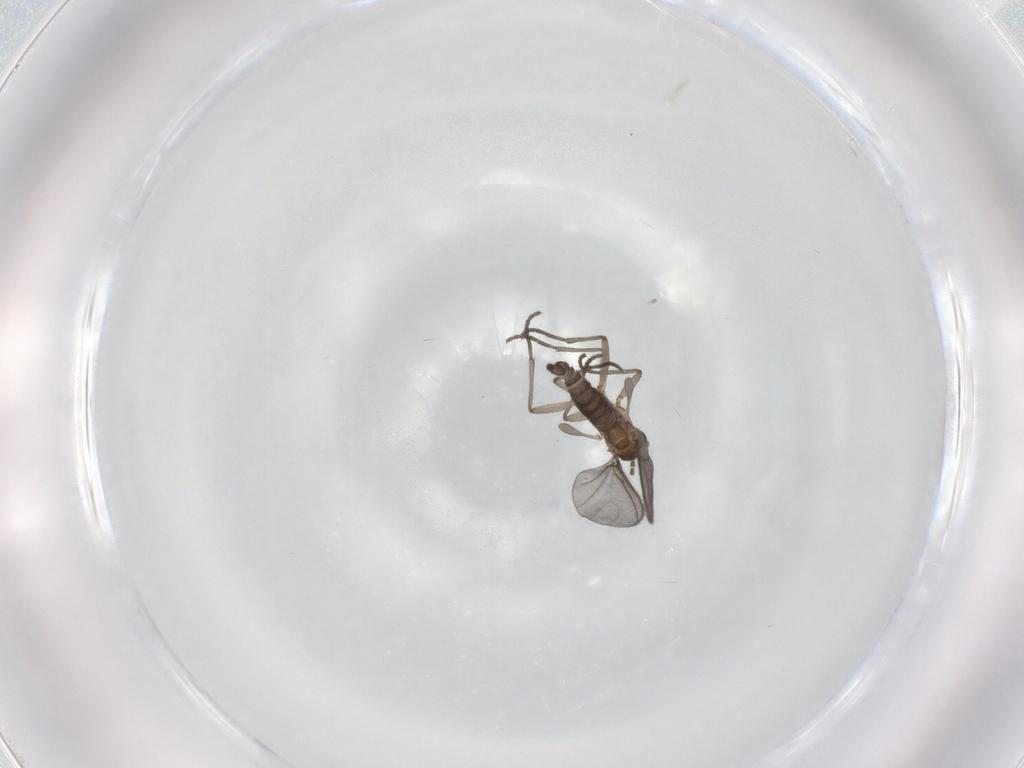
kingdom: Animalia
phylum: Arthropoda
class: Insecta
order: Diptera
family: Sciaridae
